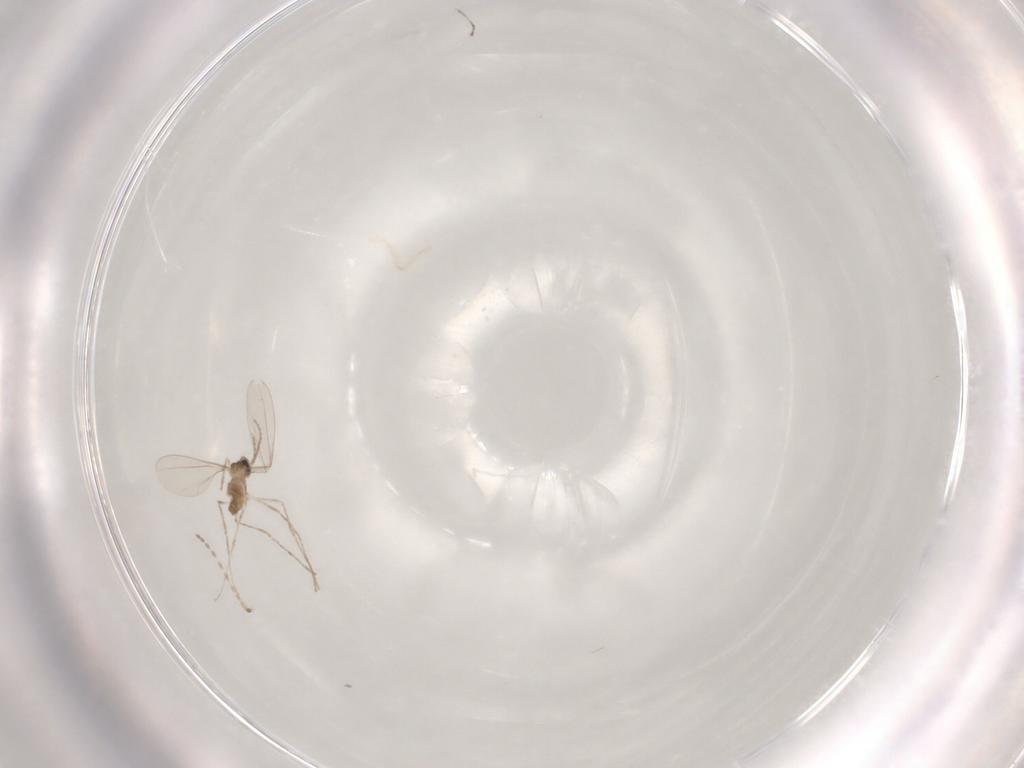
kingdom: Animalia
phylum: Arthropoda
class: Insecta
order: Diptera
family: Cecidomyiidae
